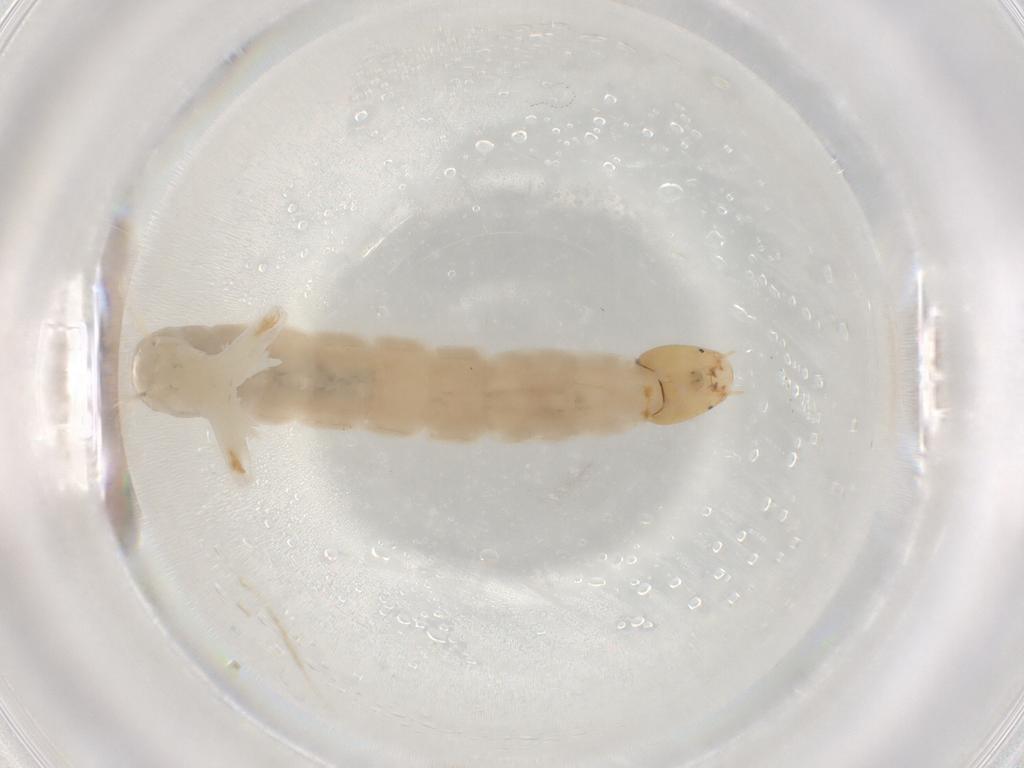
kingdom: Animalia
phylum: Arthropoda
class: Insecta
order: Diptera
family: Chironomidae
